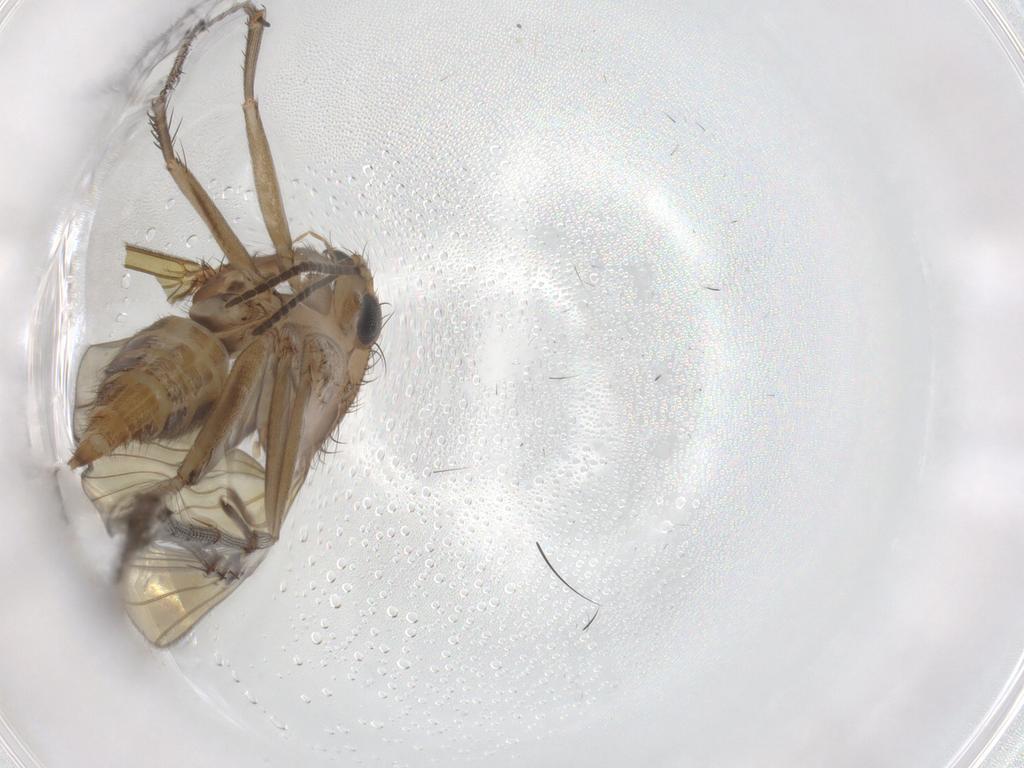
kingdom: Animalia
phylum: Arthropoda
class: Insecta
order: Diptera
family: Mycetophilidae
